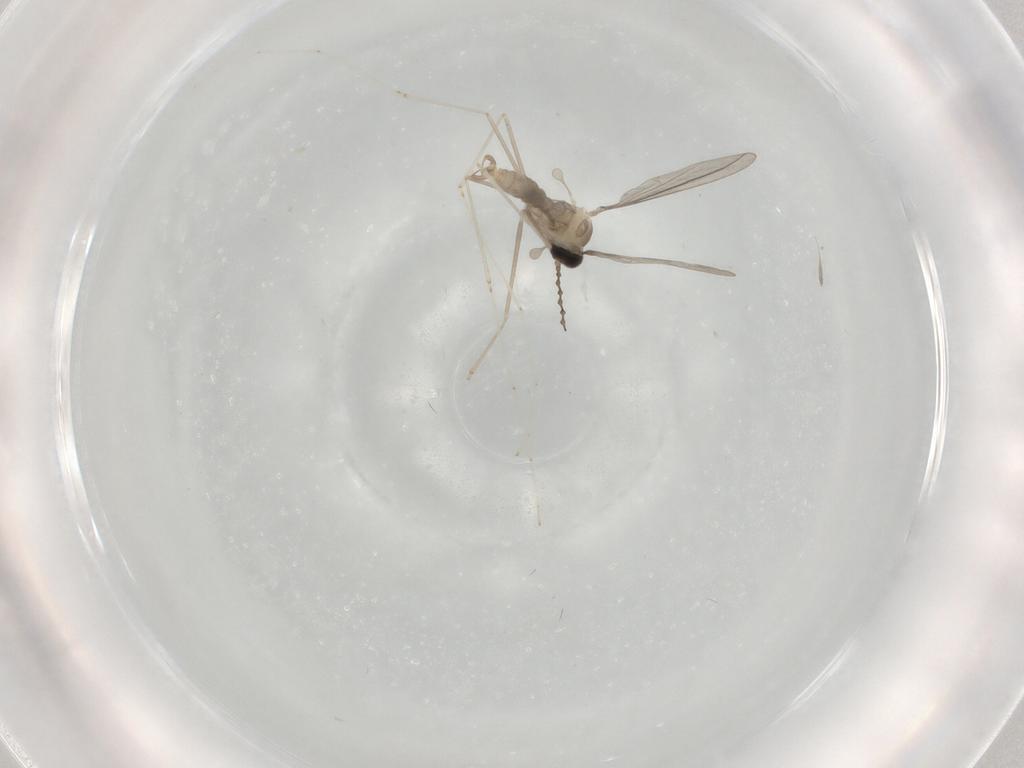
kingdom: Animalia
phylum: Arthropoda
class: Insecta
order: Diptera
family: Cecidomyiidae
